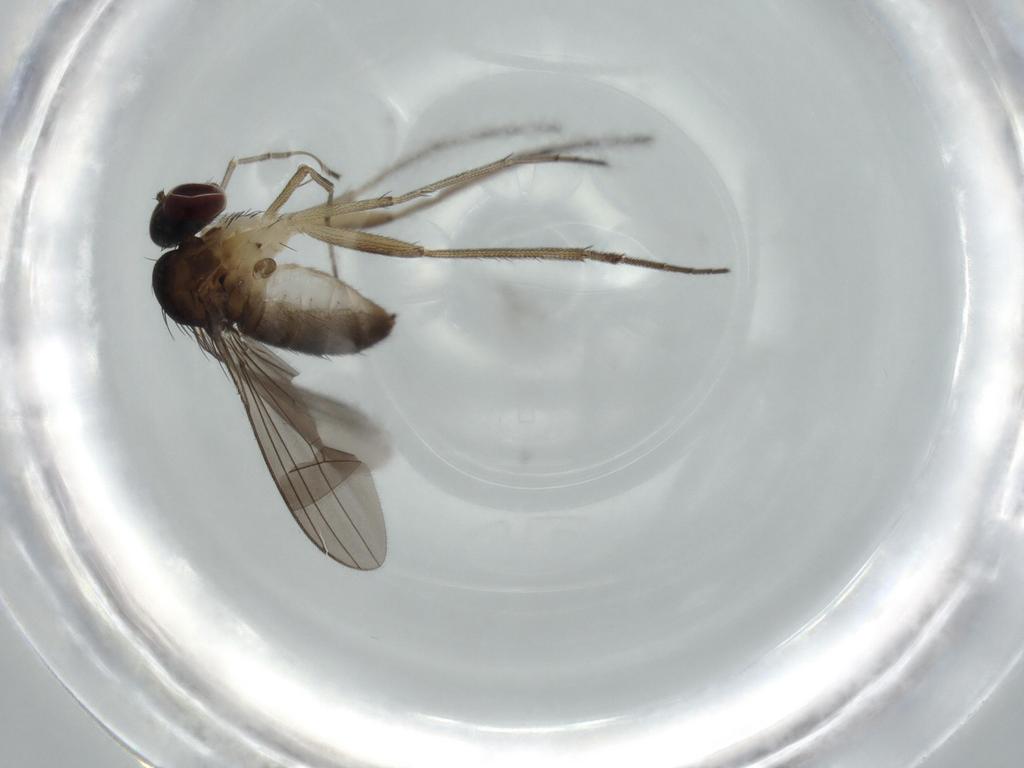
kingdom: Animalia
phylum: Arthropoda
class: Insecta
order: Diptera
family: Dolichopodidae
